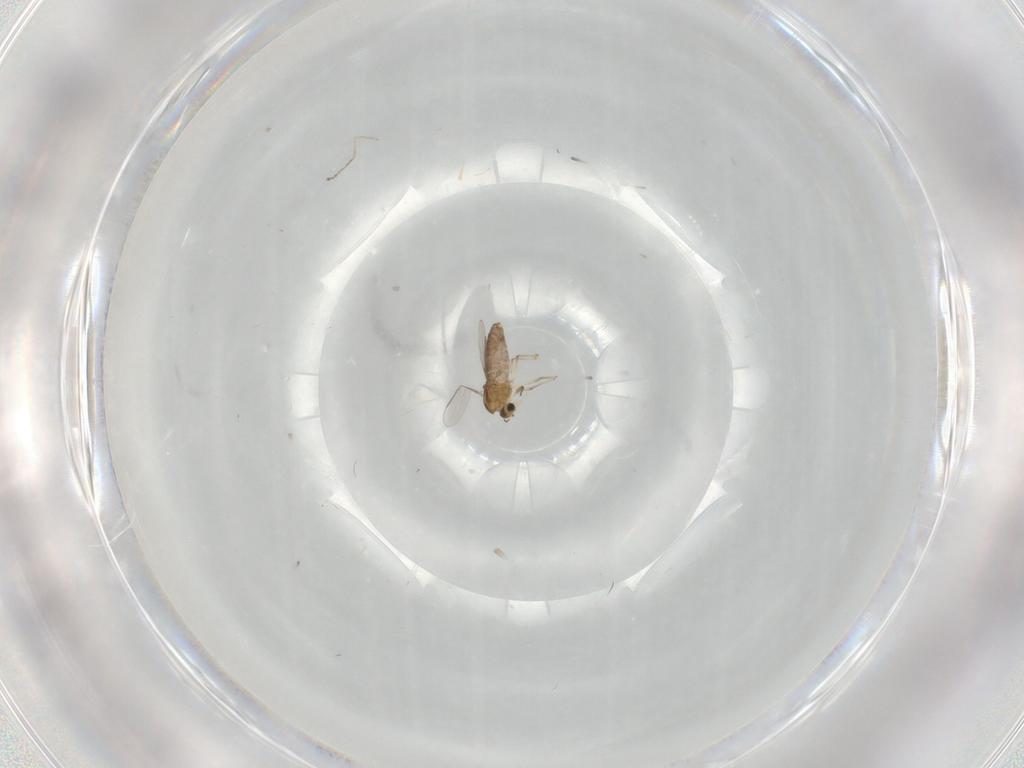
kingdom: Animalia
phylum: Arthropoda
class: Insecta
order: Diptera
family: Chironomidae
